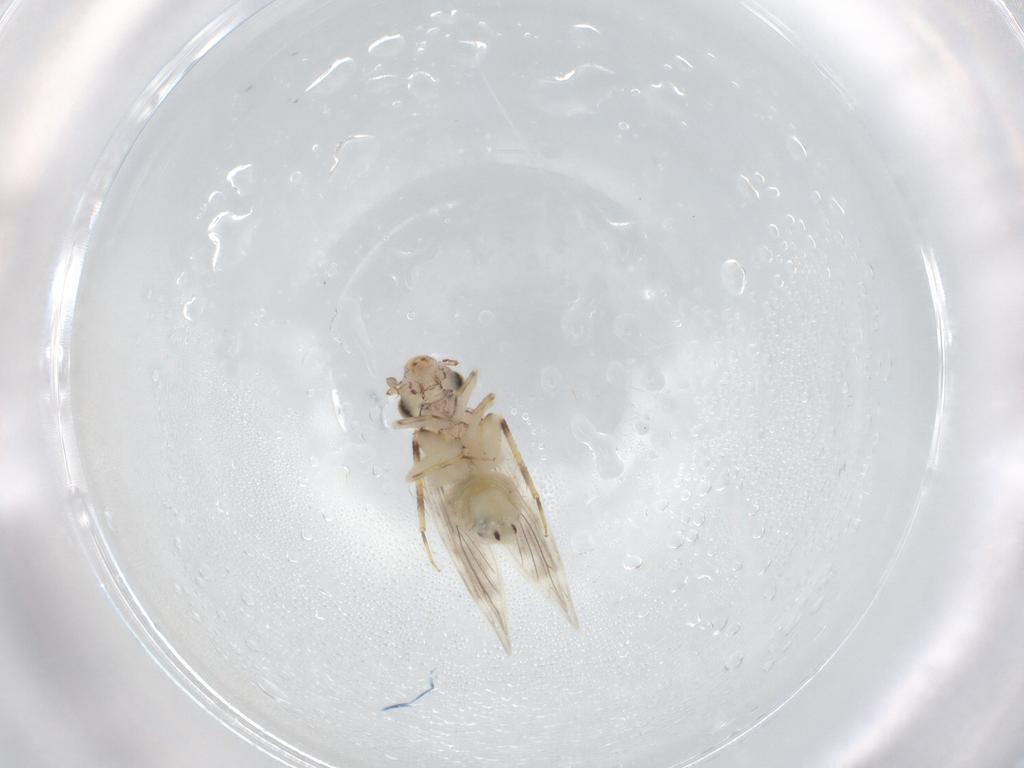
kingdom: Animalia
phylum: Arthropoda
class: Insecta
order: Psocodea
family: Lepidopsocidae
